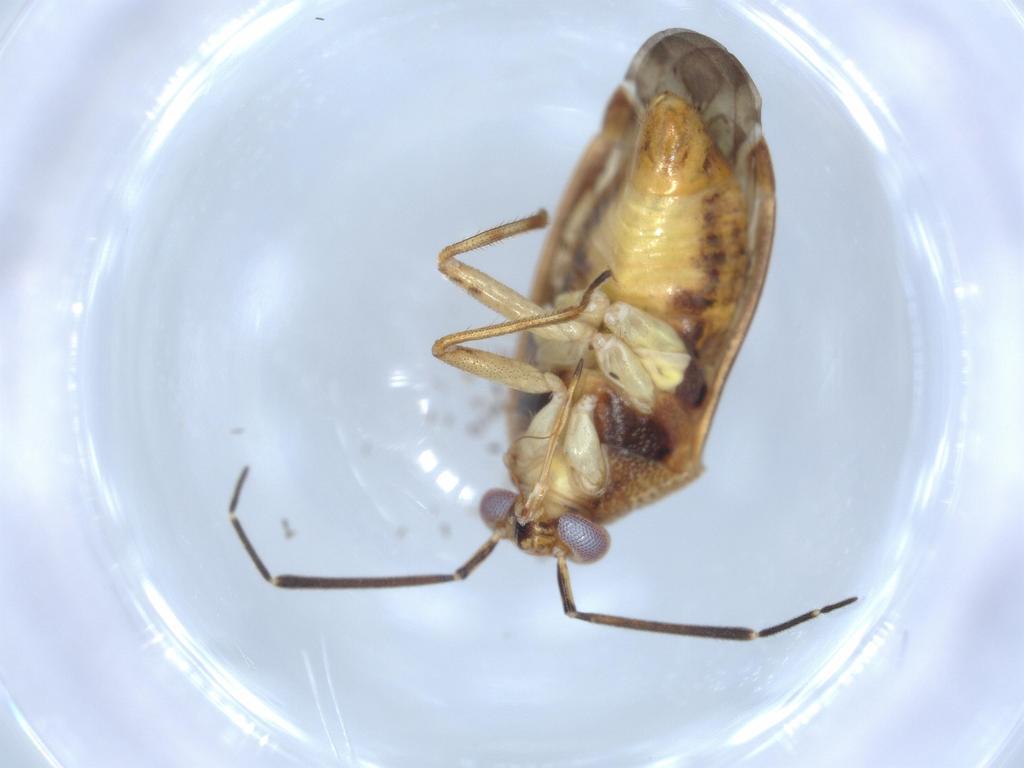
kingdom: Animalia
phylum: Arthropoda
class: Insecta
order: Hemiptera
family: Miridae
